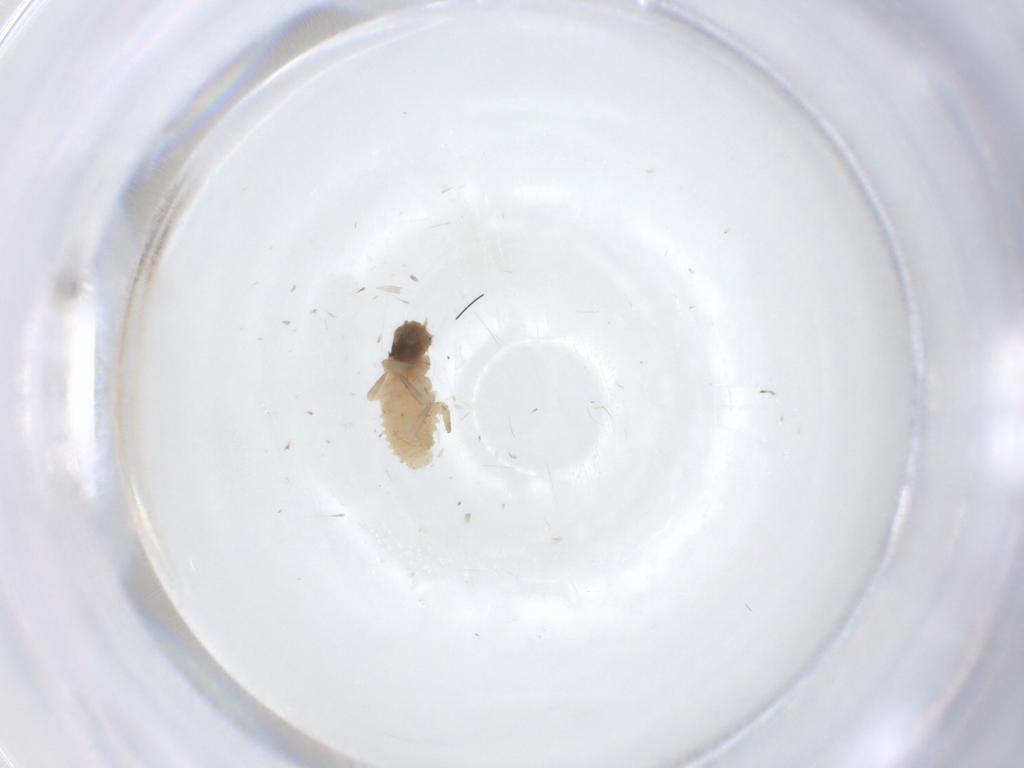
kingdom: Animalia
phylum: Arthropoda
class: Insecta
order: Coleoptera
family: Coccinellidae
